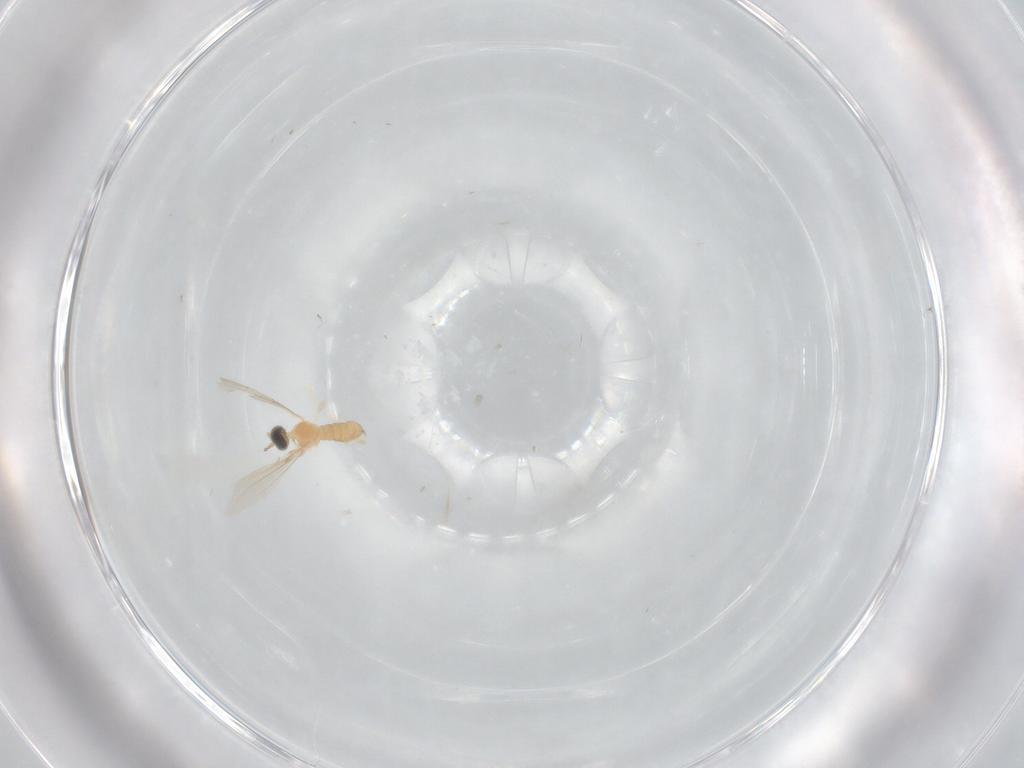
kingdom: Animalia
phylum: Arthropoda
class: Insecta
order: Diptera
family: Cecidomyiidae
